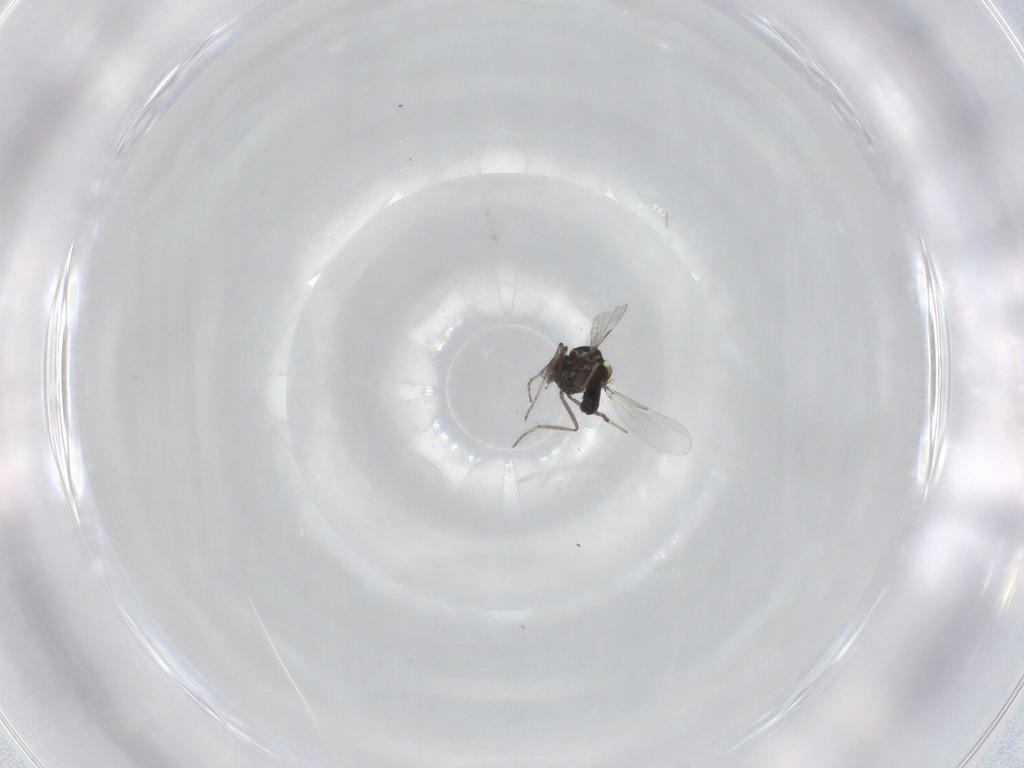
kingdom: Animalia
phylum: Arthropoda
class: Insecta
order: Diptera
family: Ceratopogonidae
